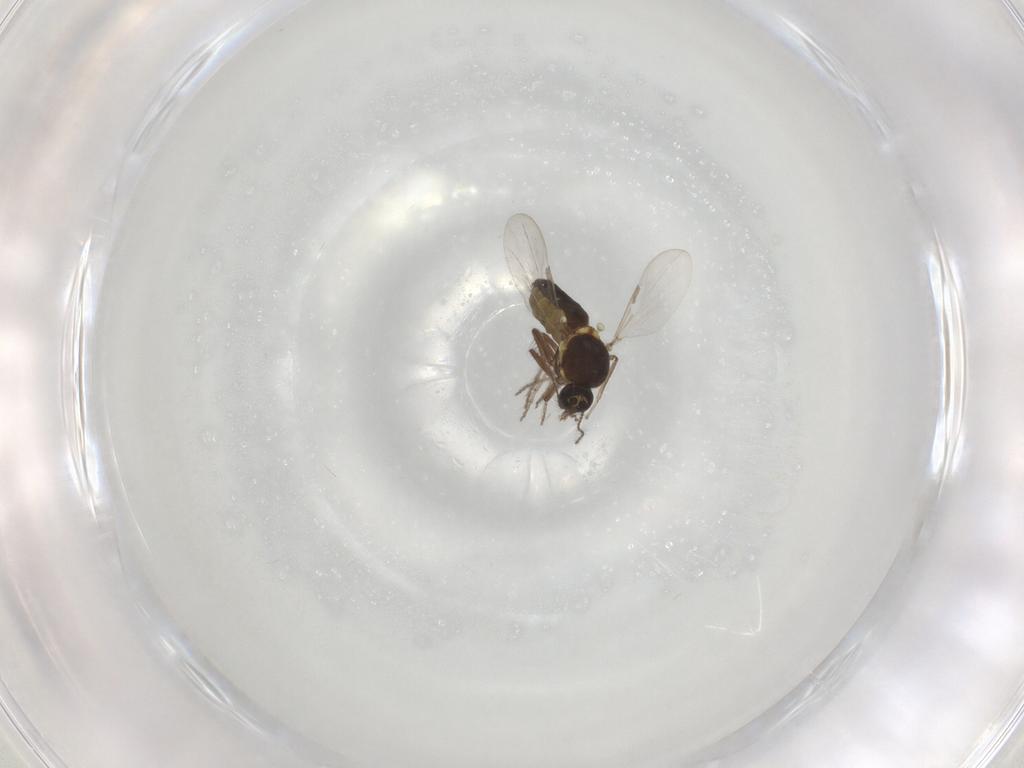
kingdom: Animalia
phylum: Arthropoda
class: Insecta
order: Diptera
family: Ceratopogonidae
